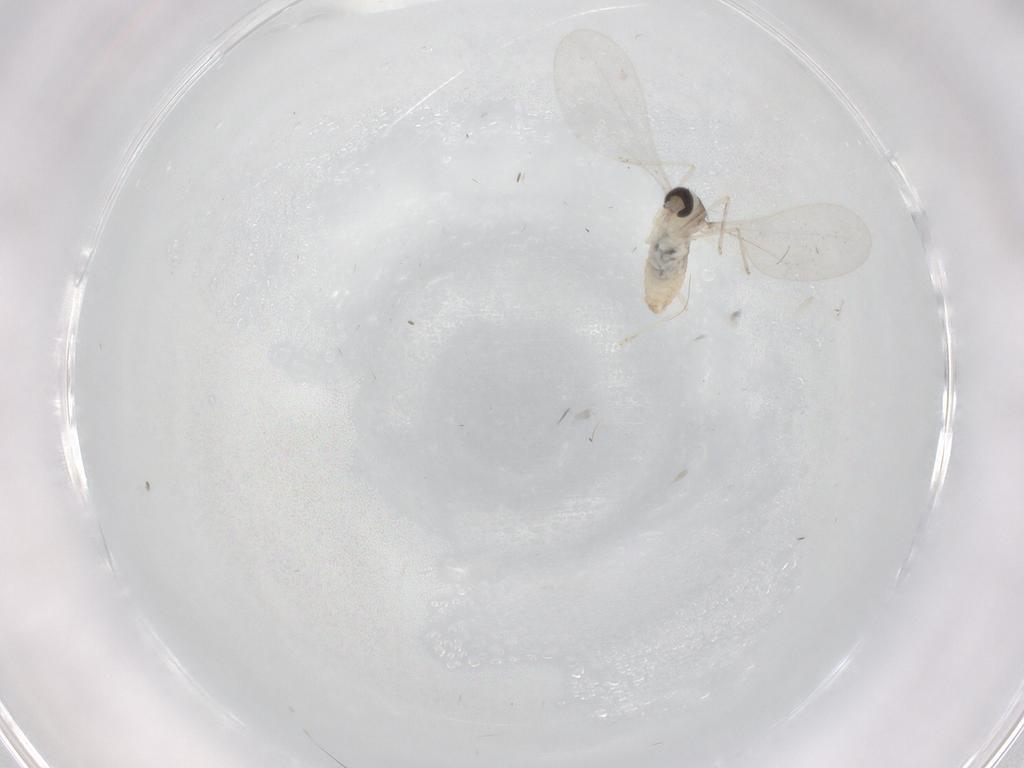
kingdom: Animalia
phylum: Arthropoda
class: Insecta
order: Diptera
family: Cecidomyiidae
